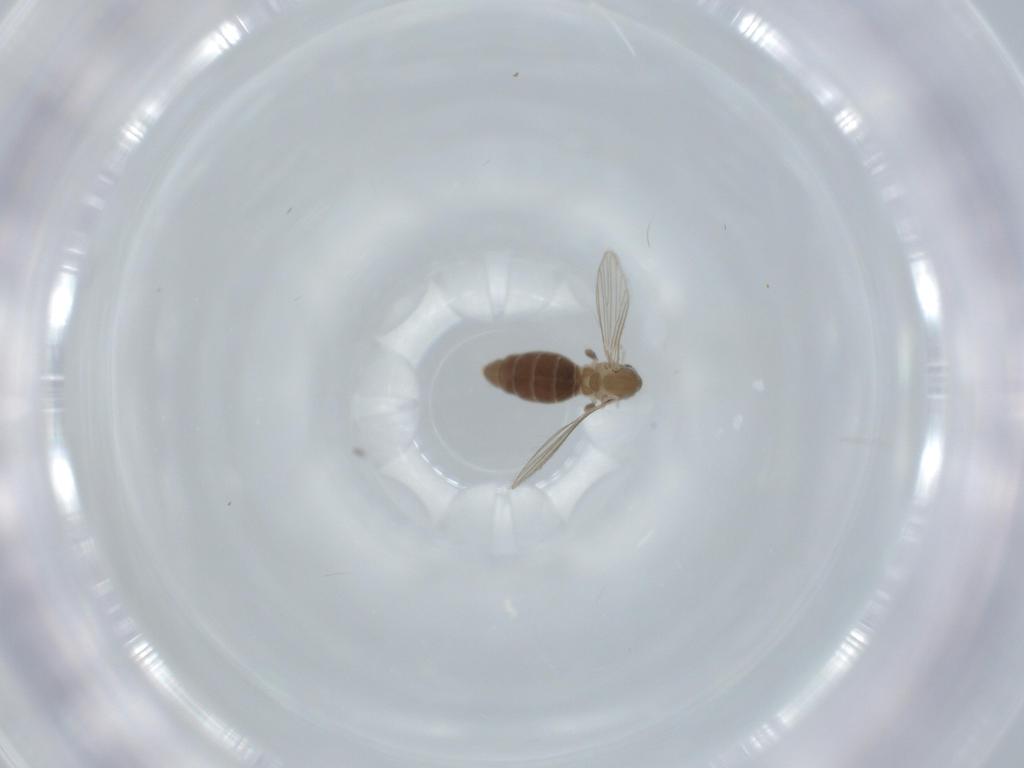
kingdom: Animalia
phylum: Arthropoda
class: Insecta
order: Diptera
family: Psychodidae
